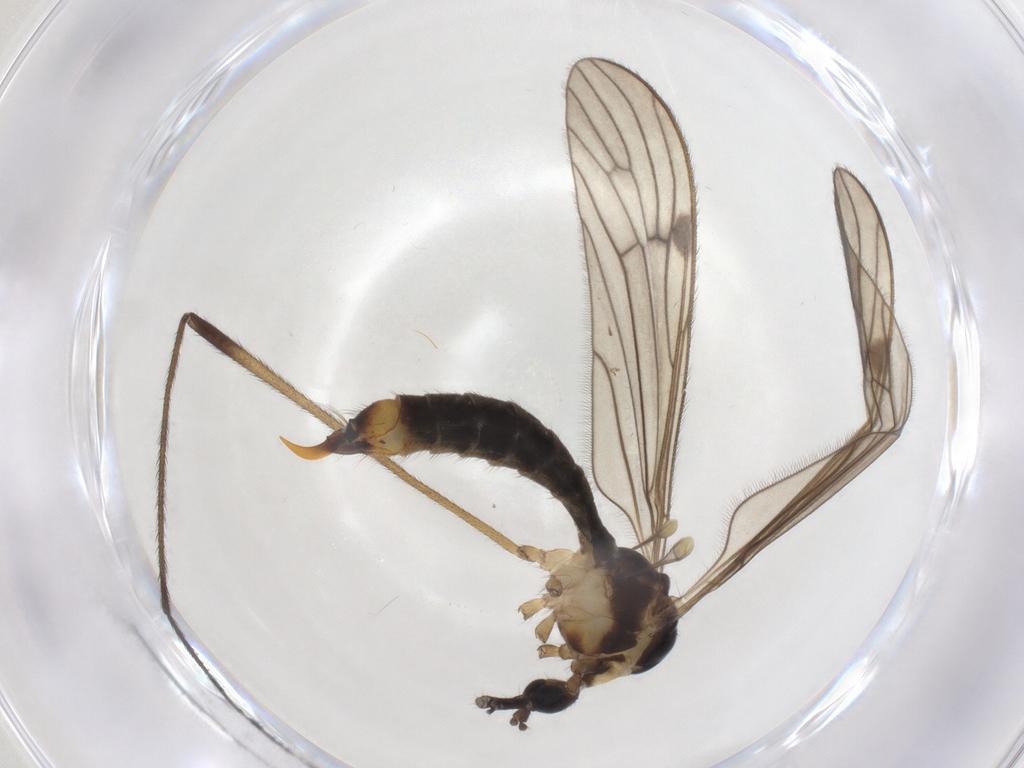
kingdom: Animalia
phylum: Arthropoda
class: Insecta
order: Diptera
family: Limoniidae
